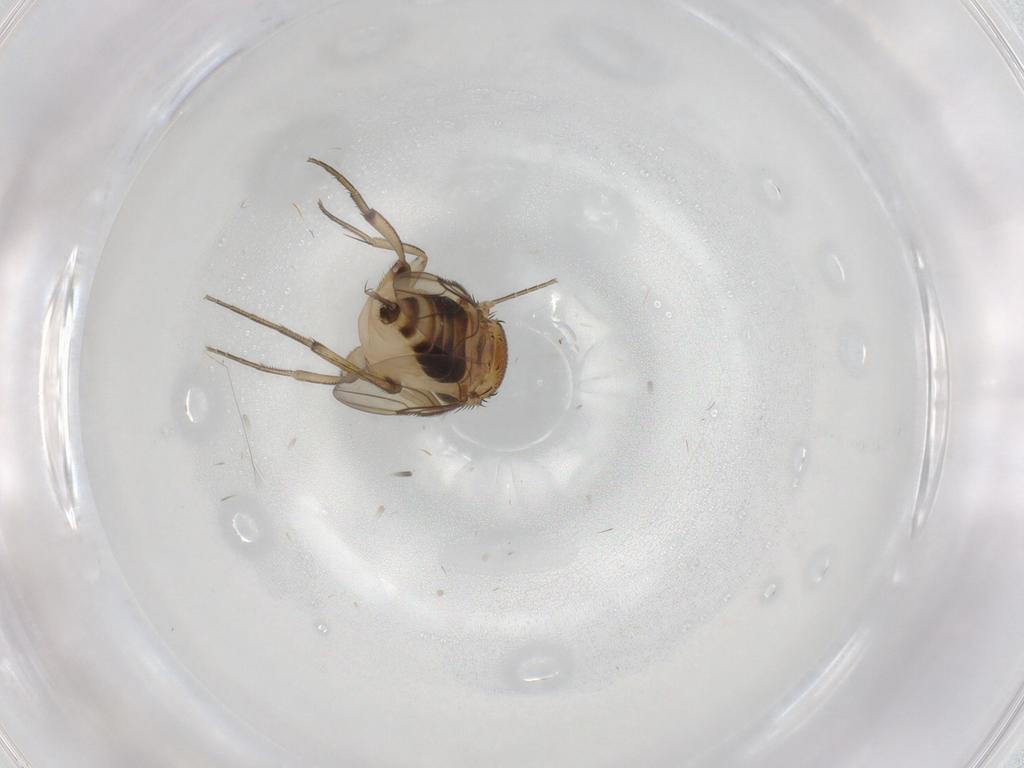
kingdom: Animalia
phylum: Arthropoda
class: Insecta
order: Diptera
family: Phoridae
